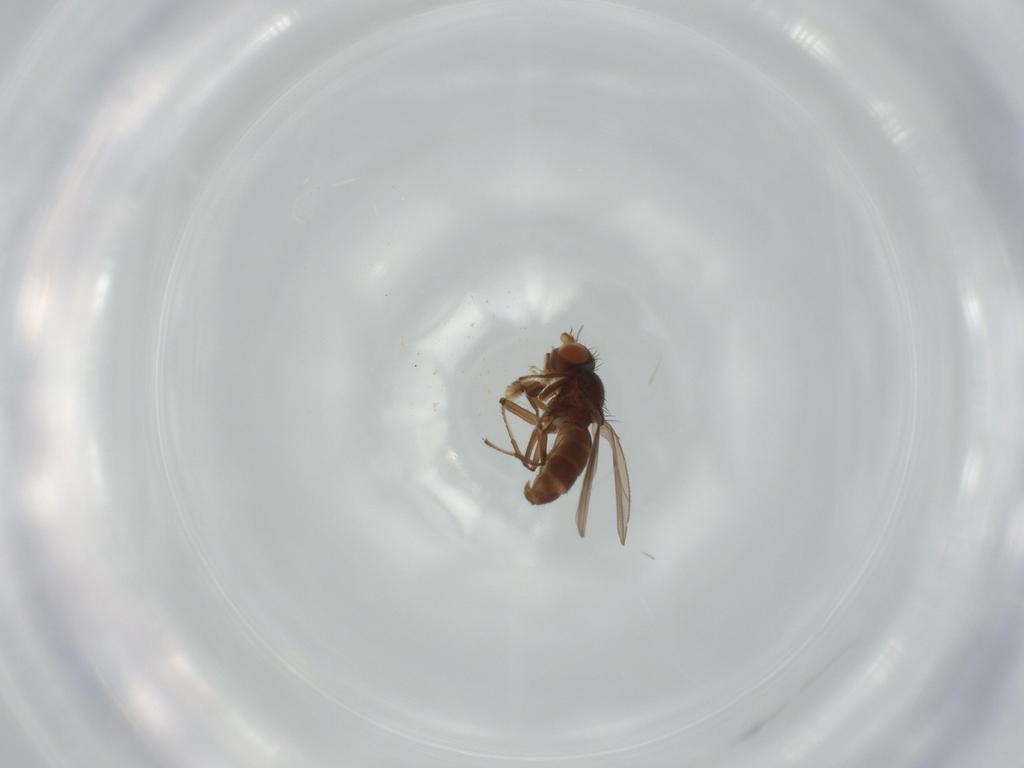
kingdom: Animalia
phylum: Arthropoda
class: Insecta
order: Diptera
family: Ephydridae
